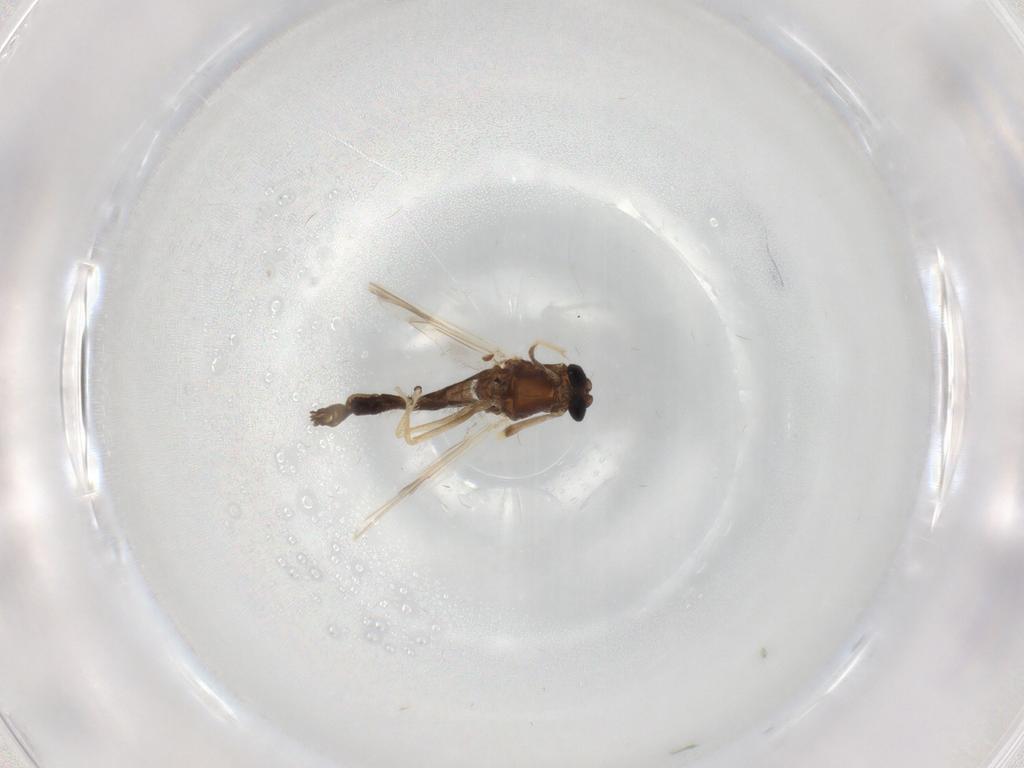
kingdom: Animalia
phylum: Arthropoda
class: Insecta
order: Diptera
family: Chironomidae
